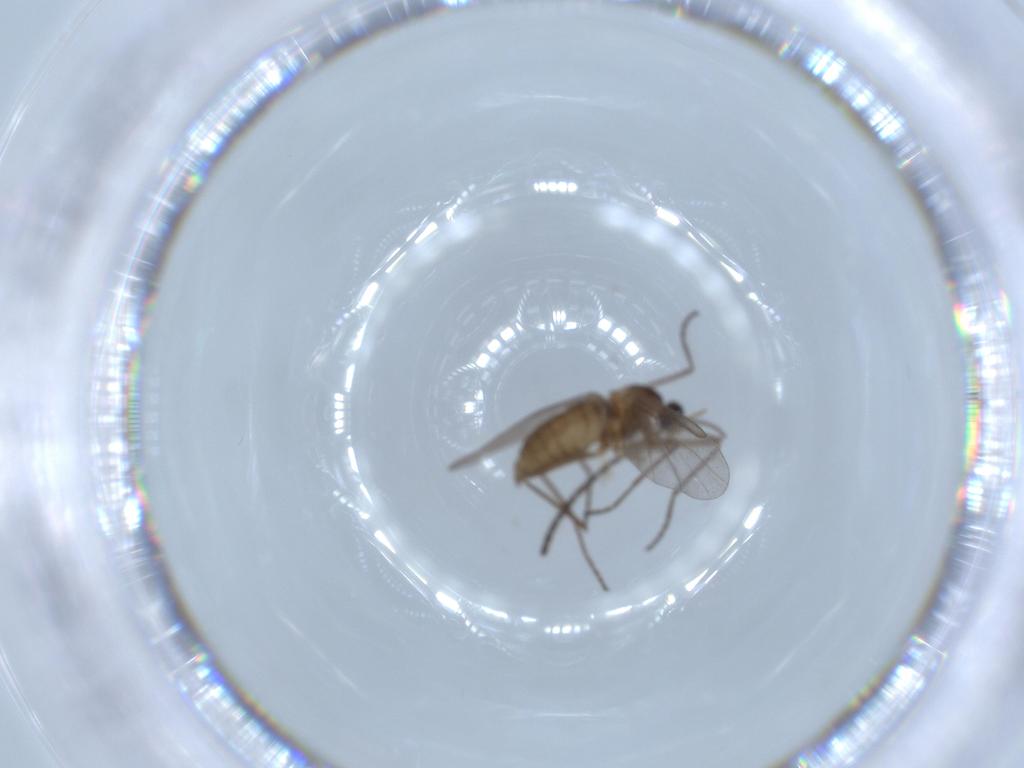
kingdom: Animalia
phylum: Arthropoda
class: Insecta
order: Diptera
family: Cecidomyiidae
